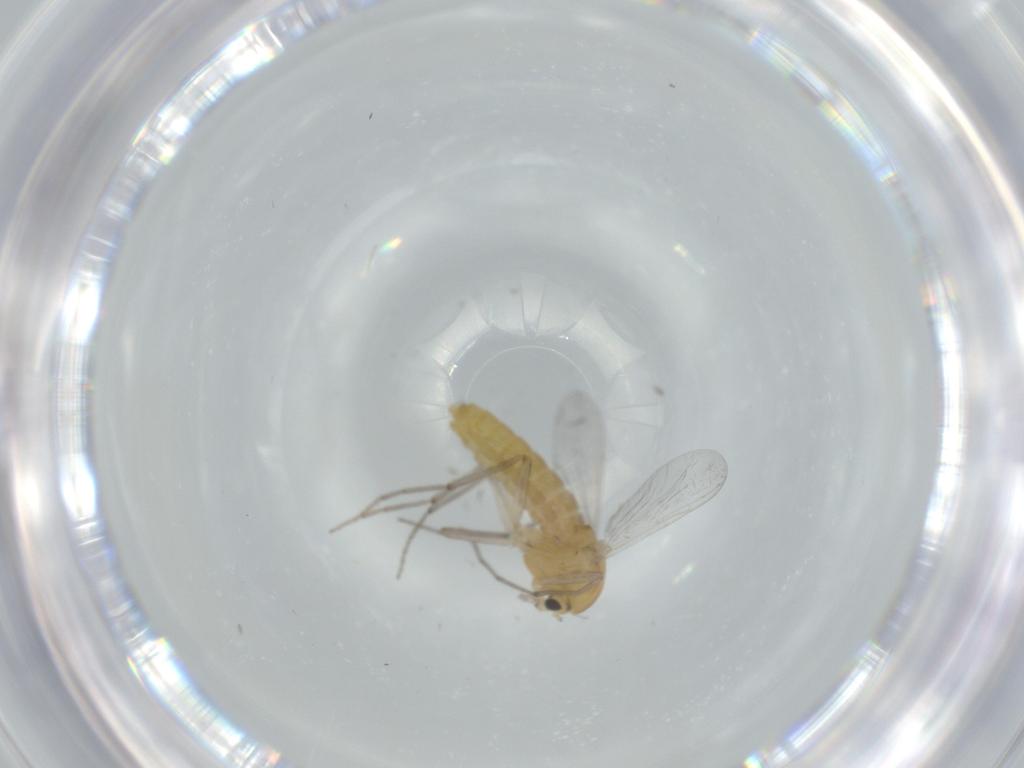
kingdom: Animalia
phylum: Arthropoda
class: Insecta
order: Diptera
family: Chironomidae
